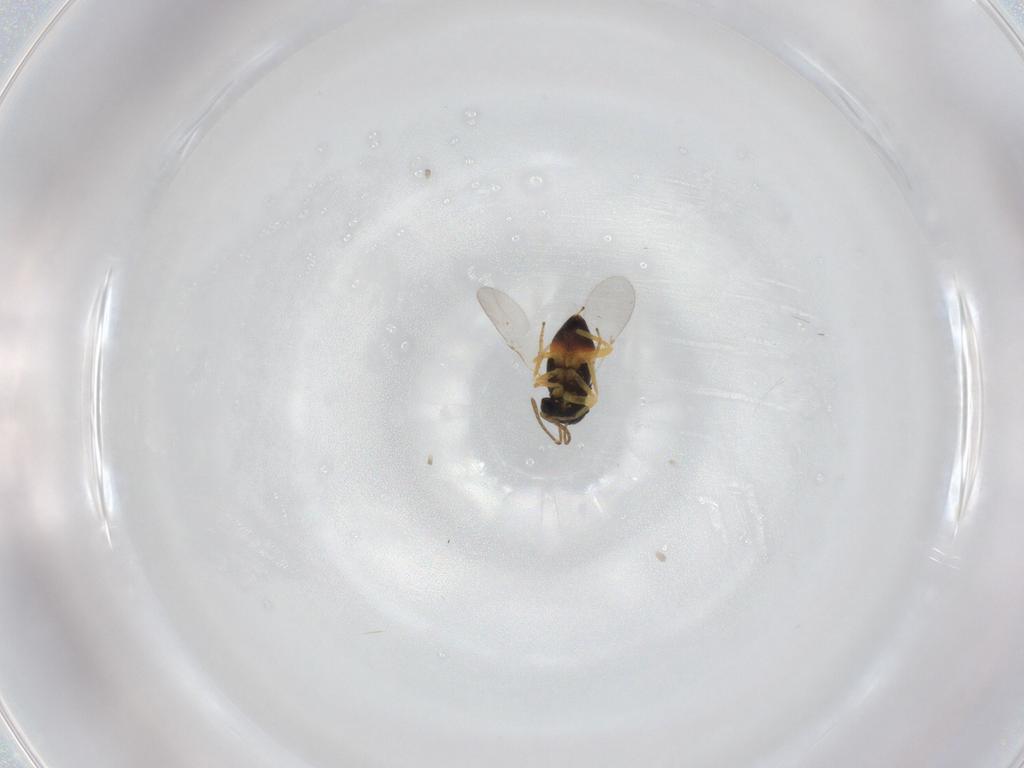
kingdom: Animalia
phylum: Arthropoda
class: Insecta
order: Hymenoptera
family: Encyrtidae
